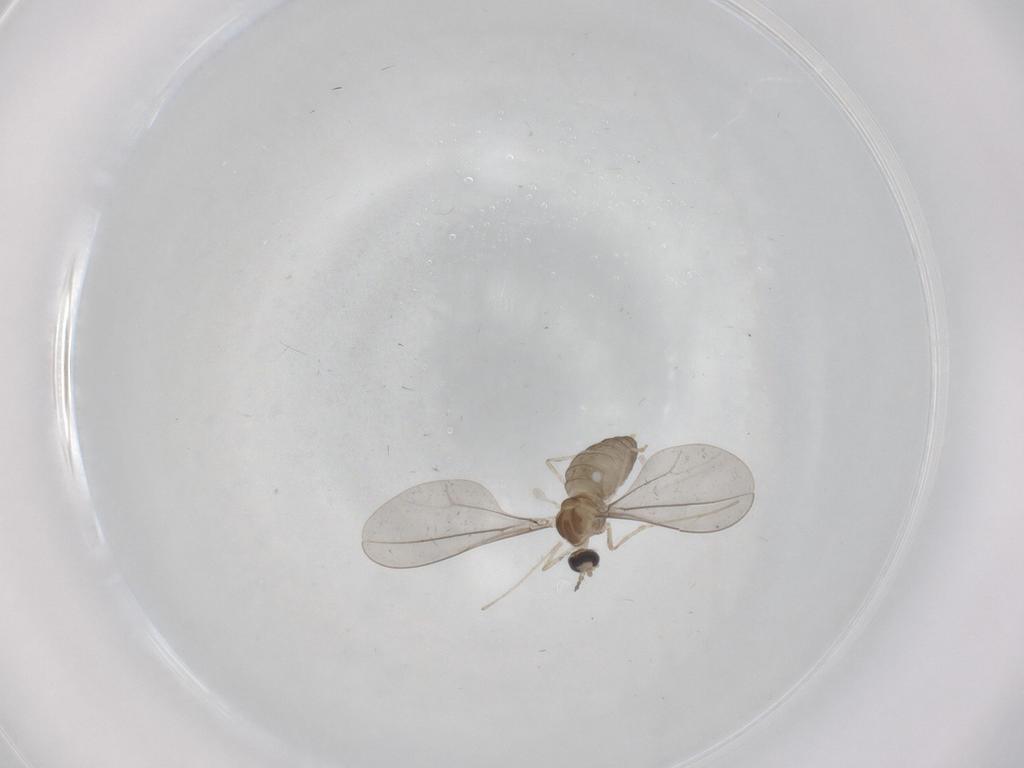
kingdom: Animalia
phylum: Arthropoda
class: Insecta
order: Diptera
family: Cecidomyiidae
